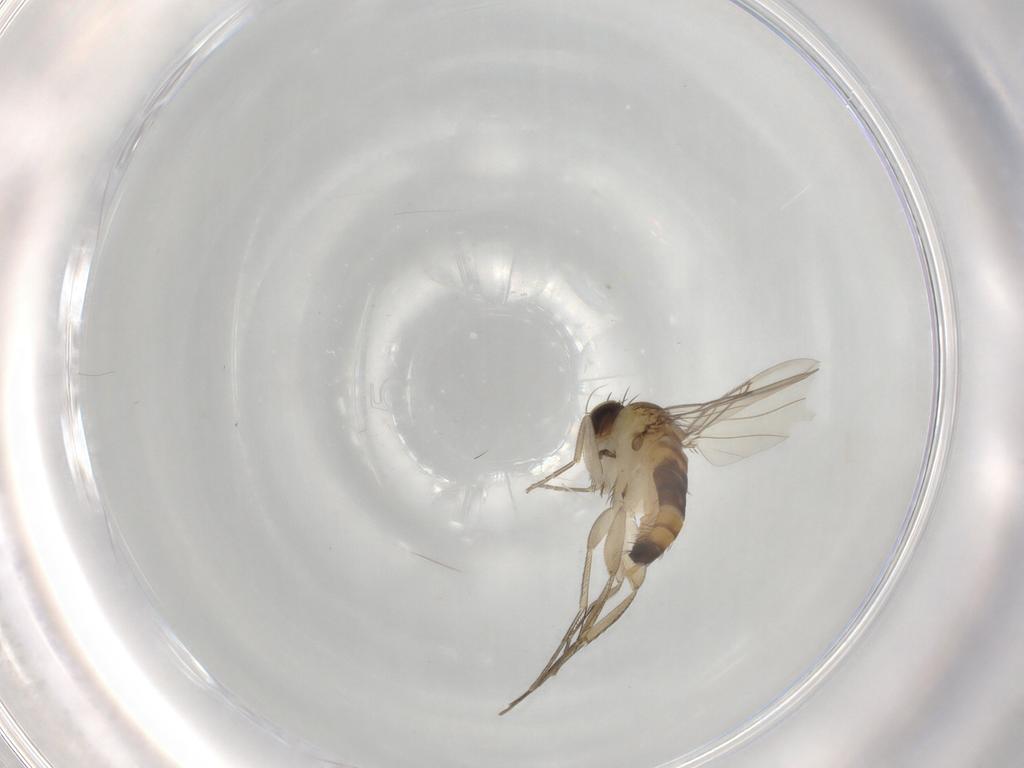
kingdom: Animalia
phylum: Arthropoda
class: Insecta
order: Diptera
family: Phoridae
